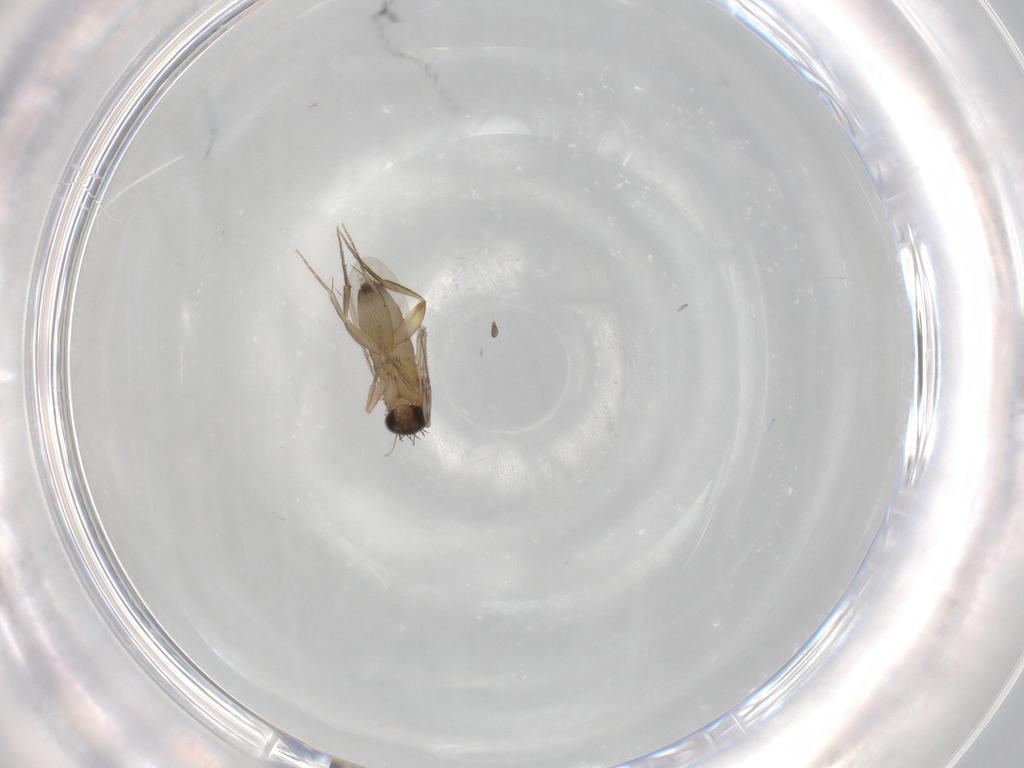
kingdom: Animalia
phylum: Arthropoda
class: Insecta
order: Diptera
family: Phoridae
